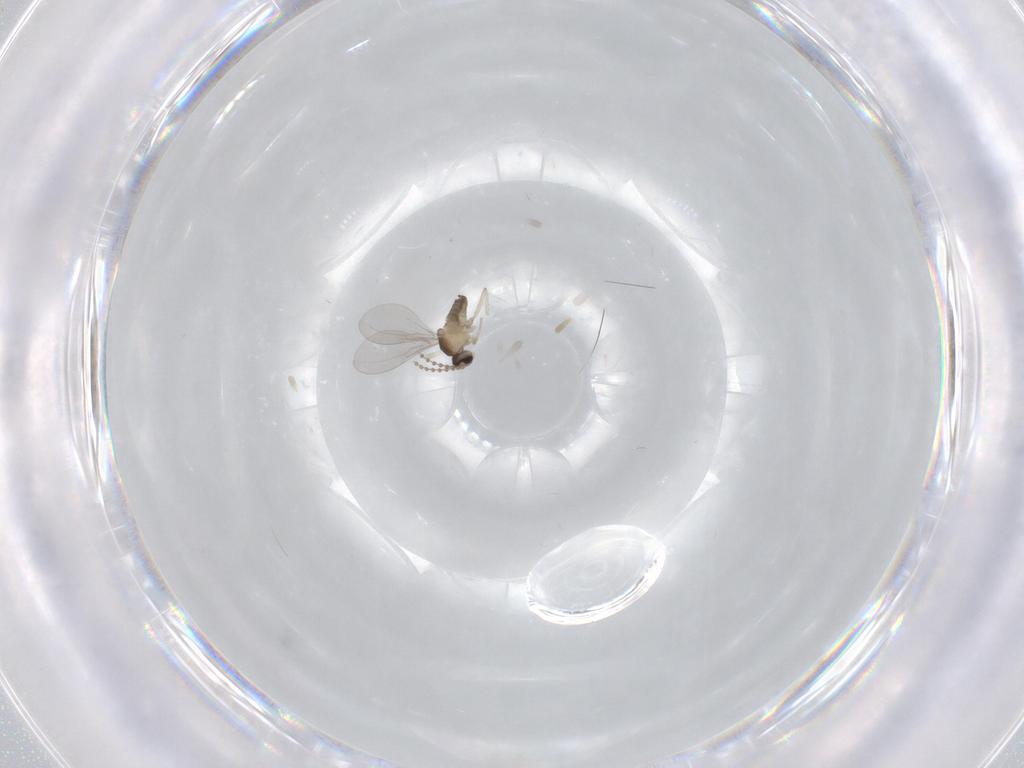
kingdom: Animalia
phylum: Arthropoda
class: Insecta
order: Diptera
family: Cecidomyiidae
